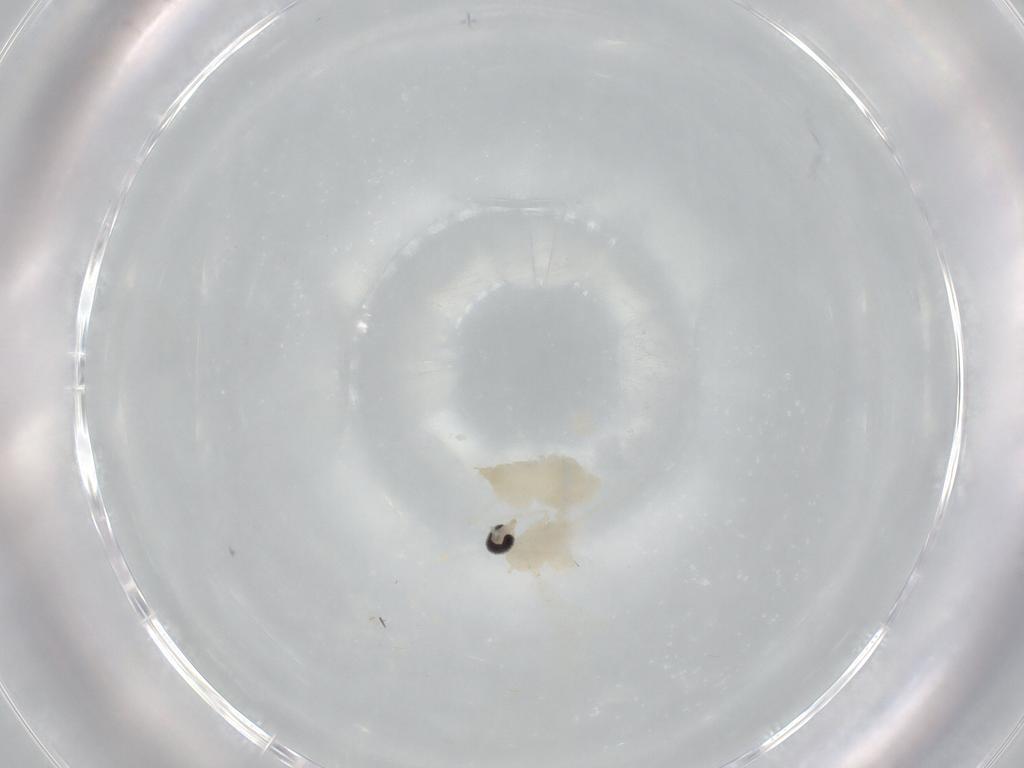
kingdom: Animalia
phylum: Arthropoda
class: Insecta
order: Diptera
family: Cecidomyiidae
